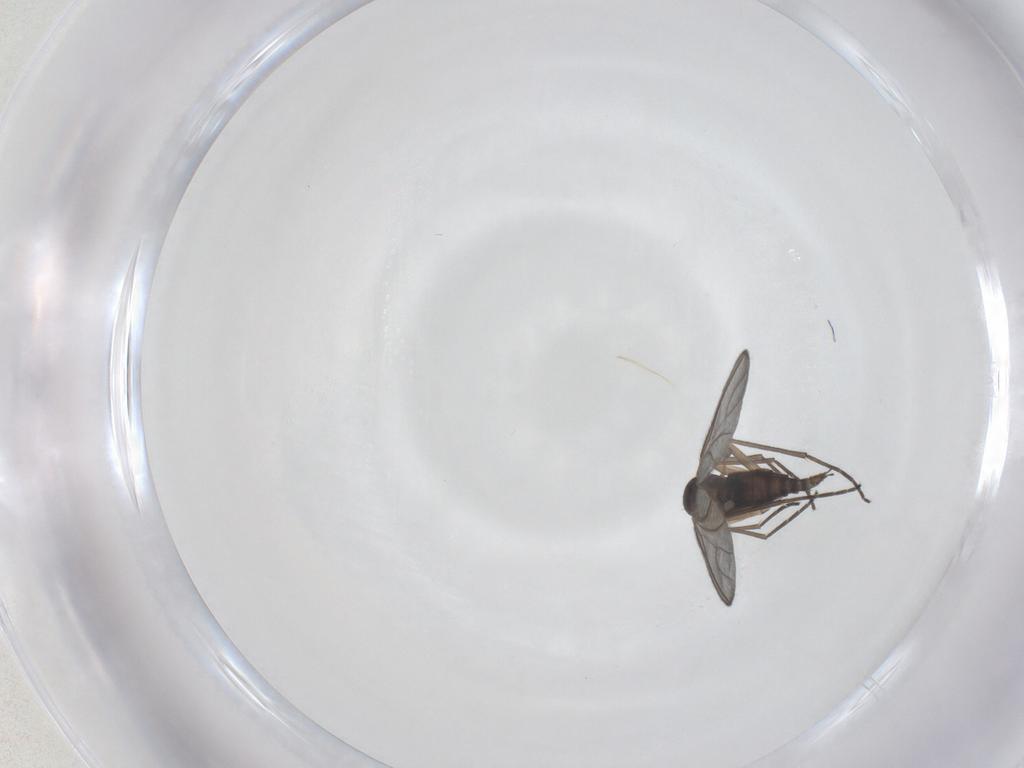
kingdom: Animalia
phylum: Arthropoda
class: Insecta
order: Diptera
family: Sciaridae
